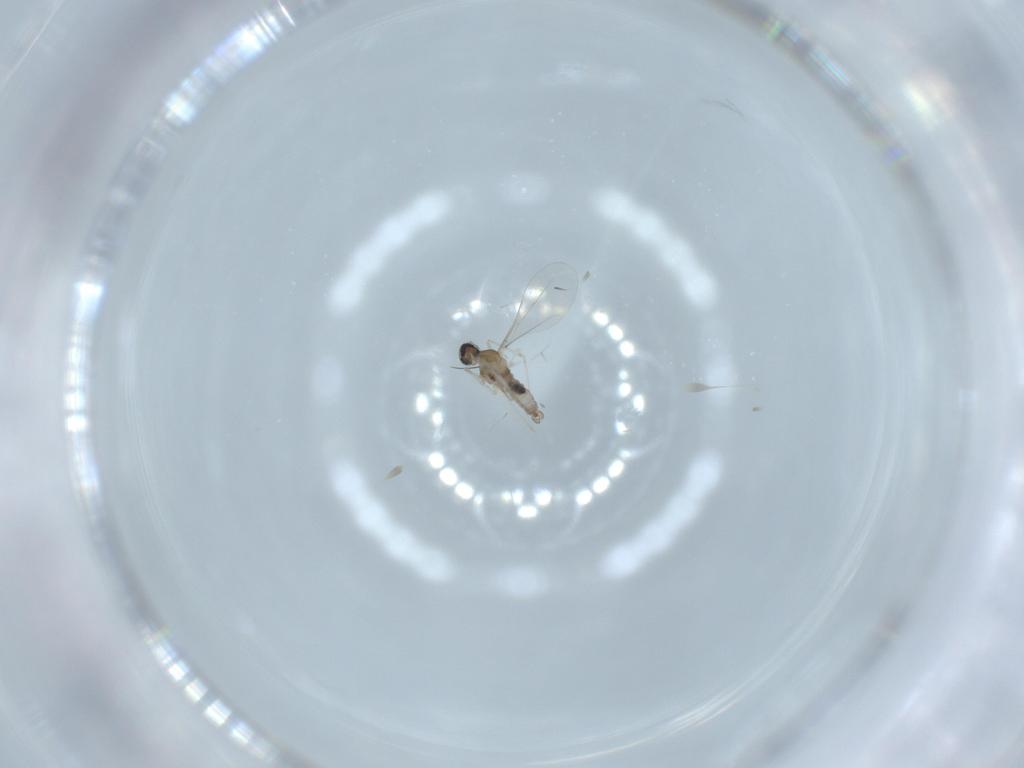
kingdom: Animalia
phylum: Arthropoda
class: Insecta
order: Diptera
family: Cecidomyiidae
